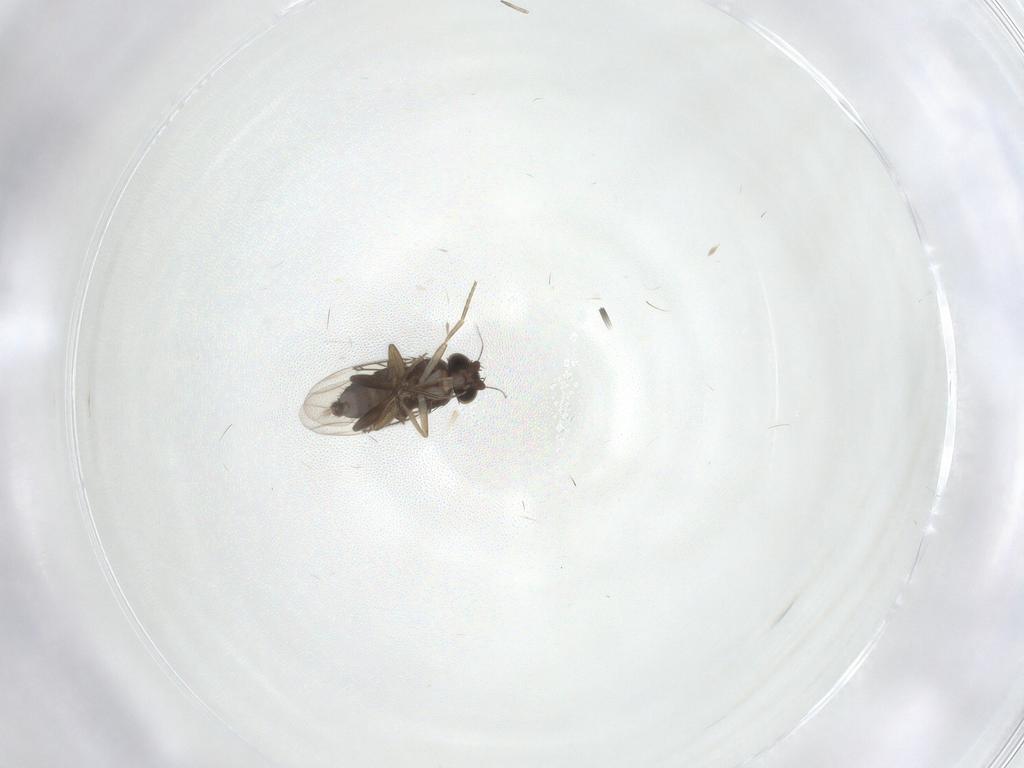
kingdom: Animalia
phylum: Arthropoda
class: Insecta
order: Diptera
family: Phoridae
